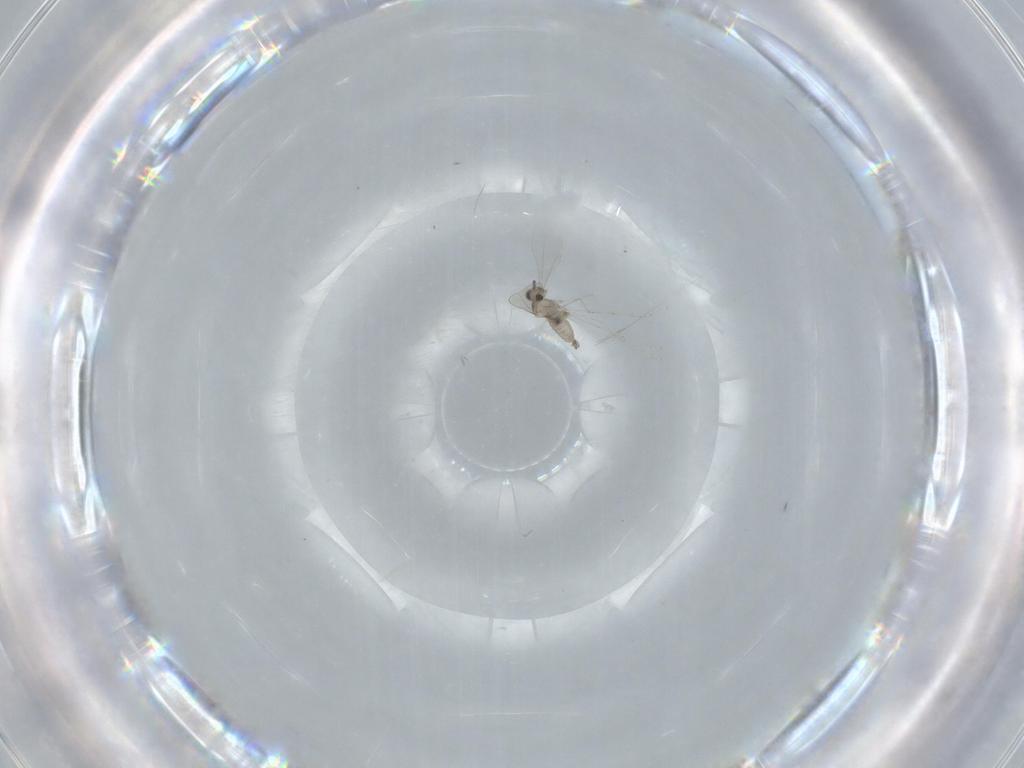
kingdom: Animalia
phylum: Arthropoda
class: Insecta
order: Diptera
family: Cecidomyiidae
